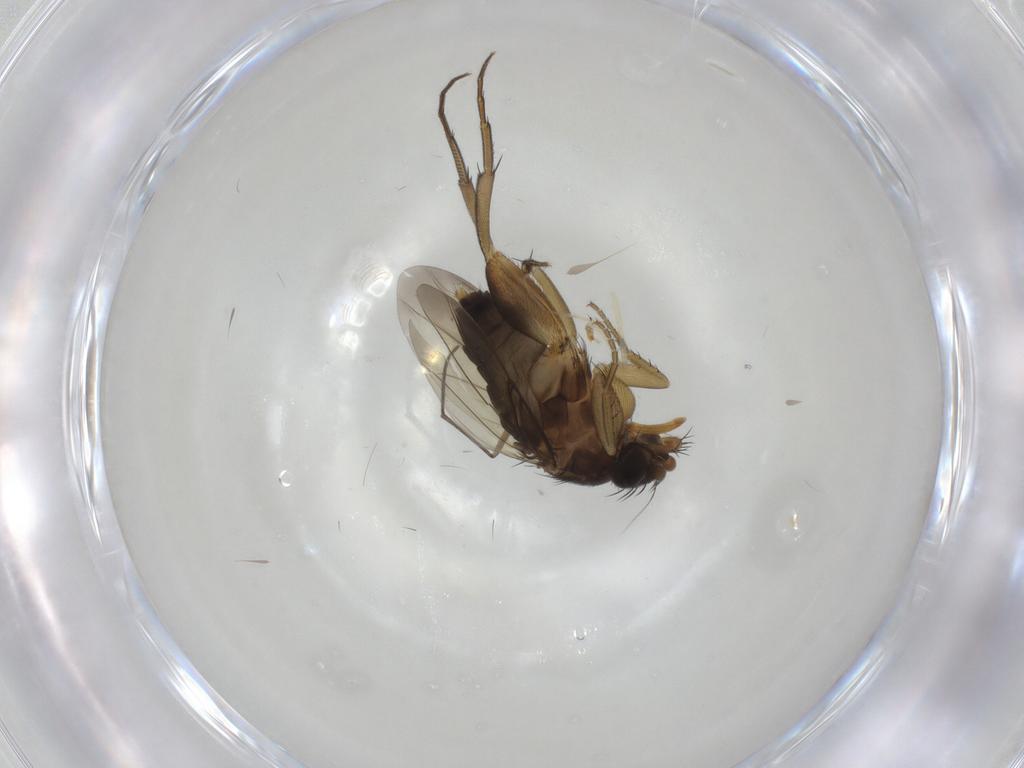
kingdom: Animalia
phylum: Arthropoda
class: Insecta
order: Diptera
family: Phoridae
